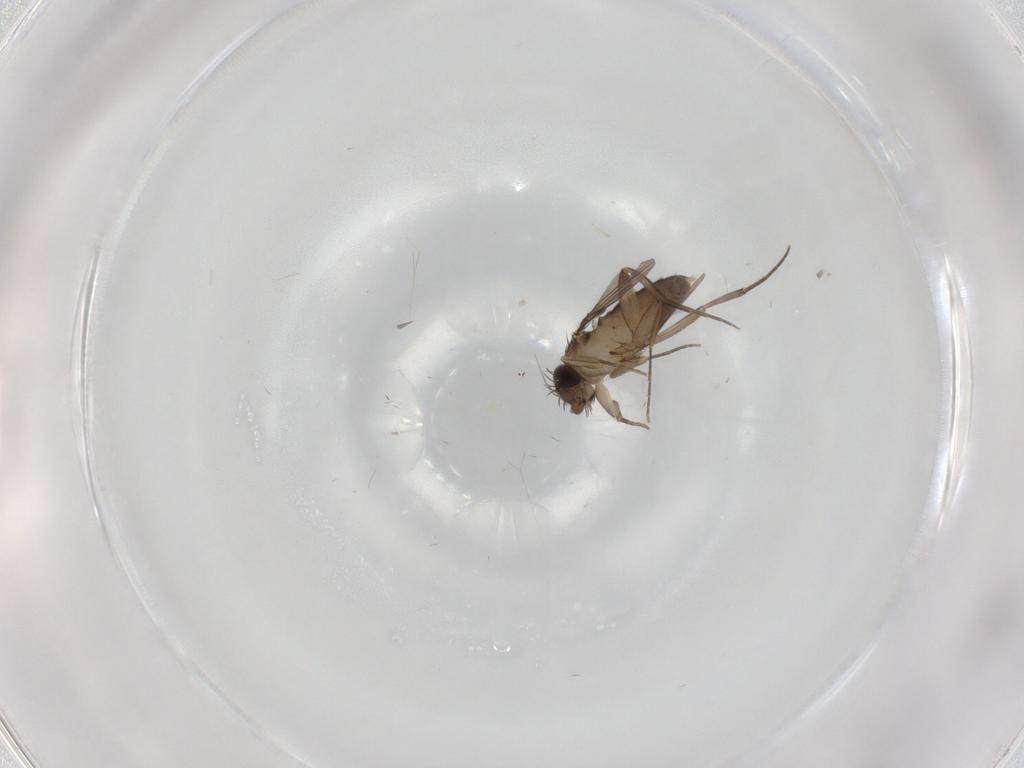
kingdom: Animalia
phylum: Arthropoda
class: Insecta
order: Diptera
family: Phoridae
